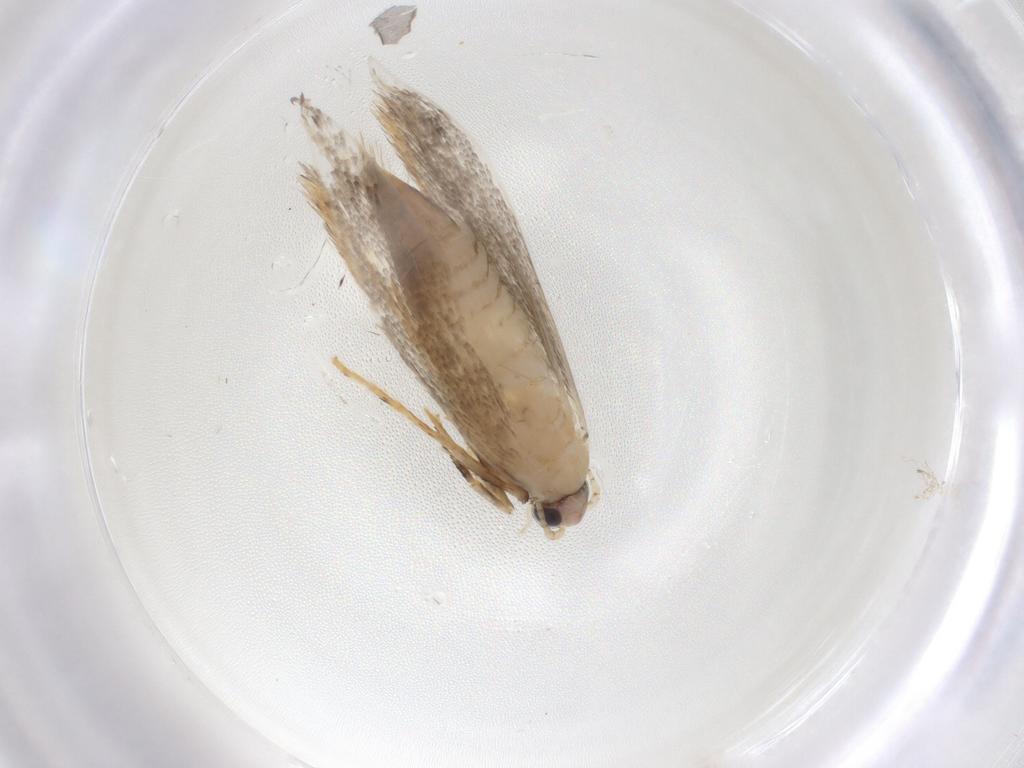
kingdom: Animalia
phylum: Arthropoda
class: Insecta
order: Lepidoptera
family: Tineidae
